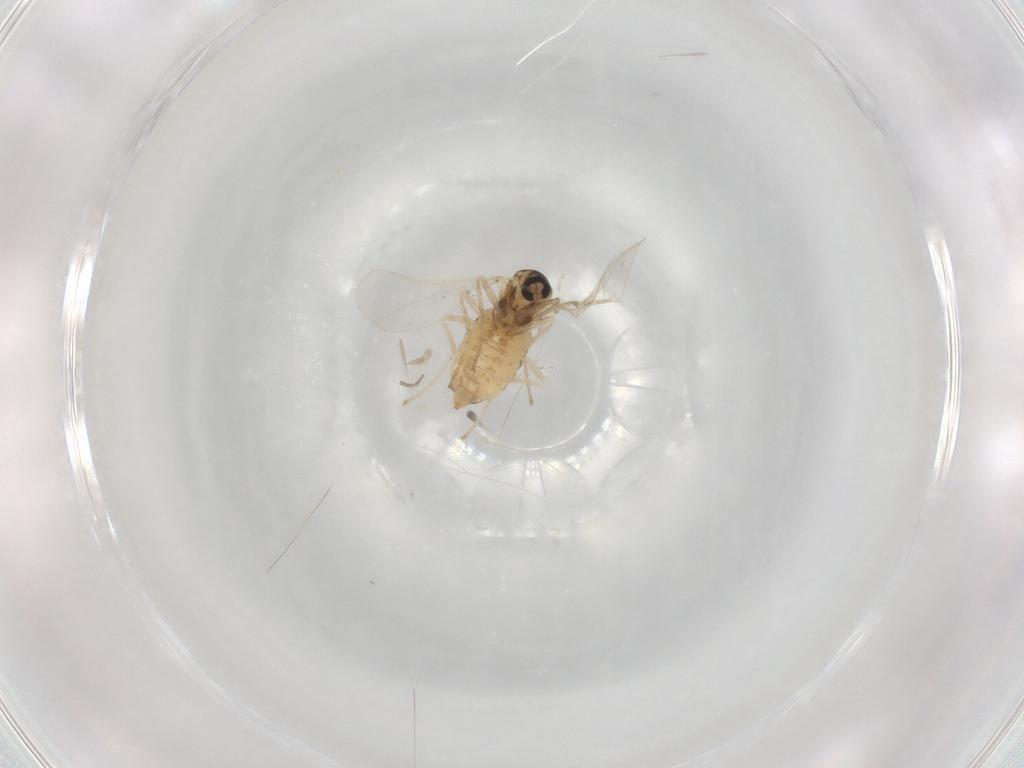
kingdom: Animalia
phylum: Arthropoda
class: Insecta
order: Diptera
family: Cecidomyiidae
